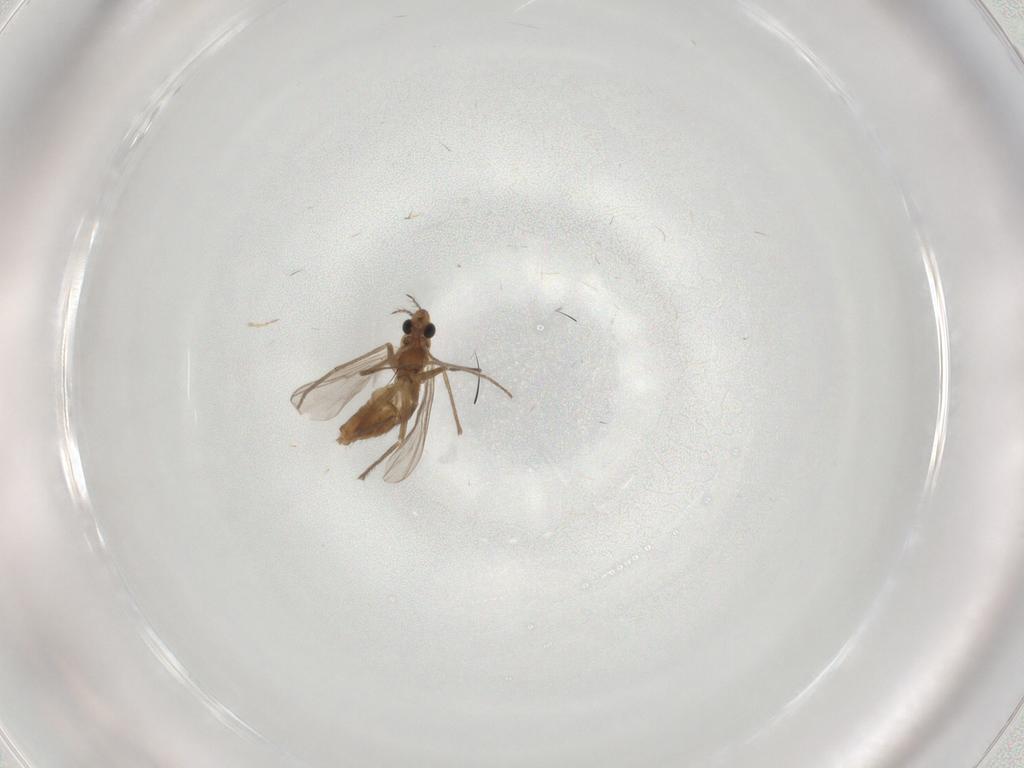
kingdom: Animalia
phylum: Arthropoda
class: Insecta
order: Diptera
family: Chironomidae
